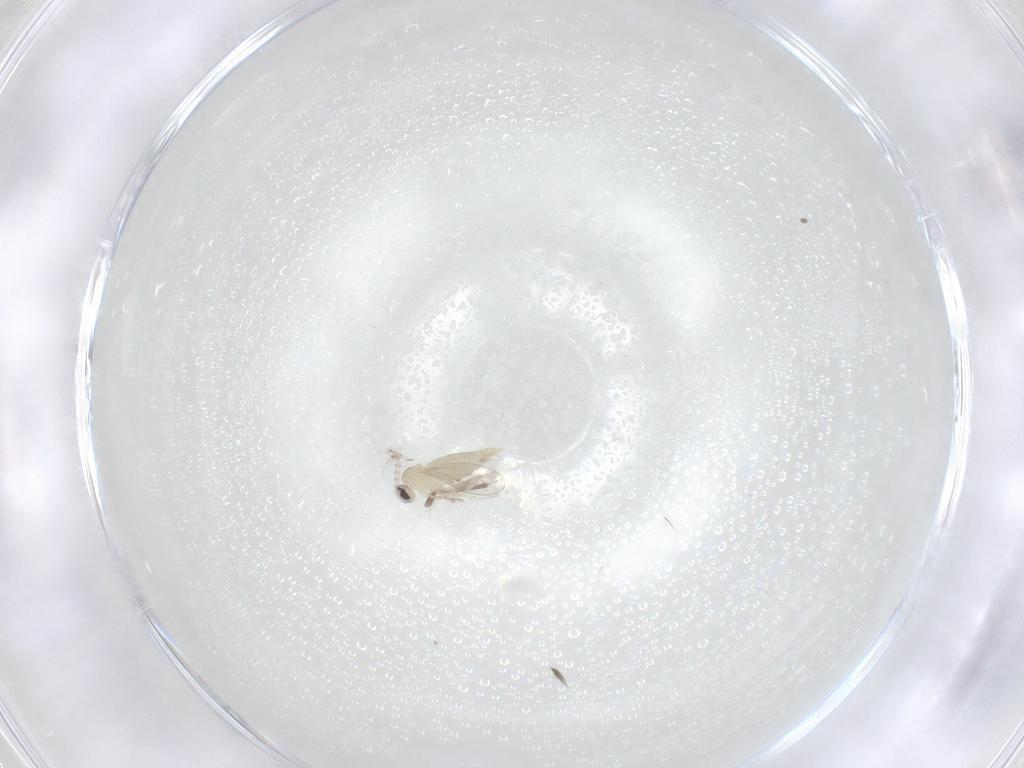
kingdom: Animalia
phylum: Arthropoda
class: Insecta
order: Diptera
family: Cecidomyiidae
